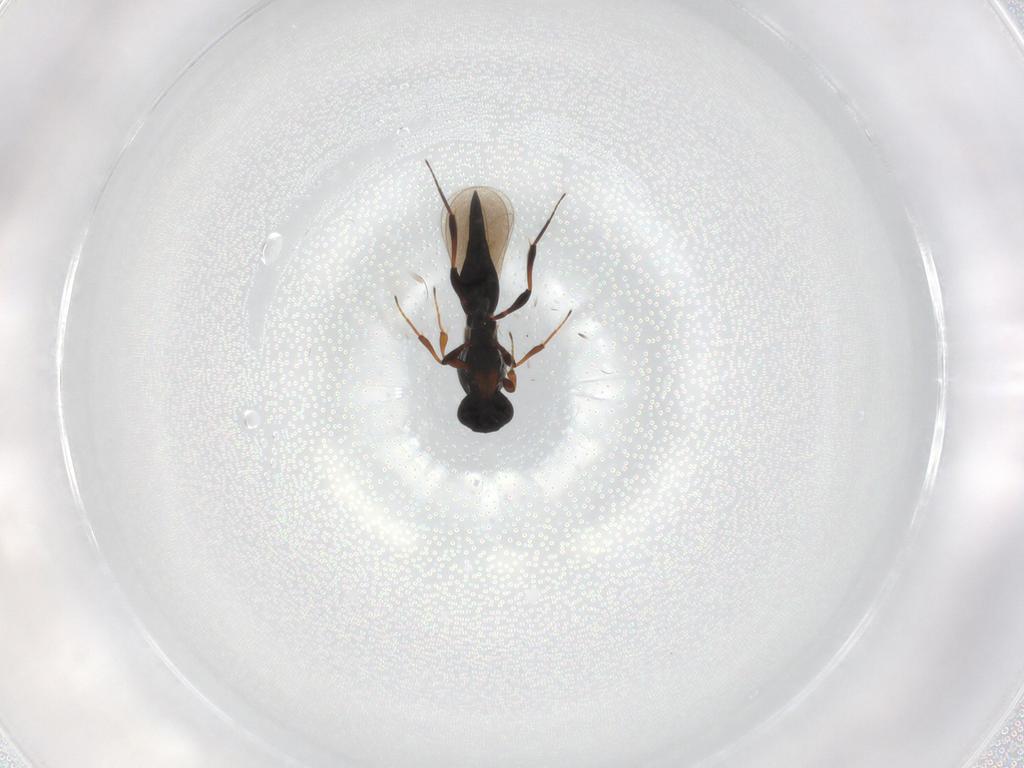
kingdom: Animalia
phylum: Arthropoda
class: Insecta
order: Hymenoptera
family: Platygastridae
